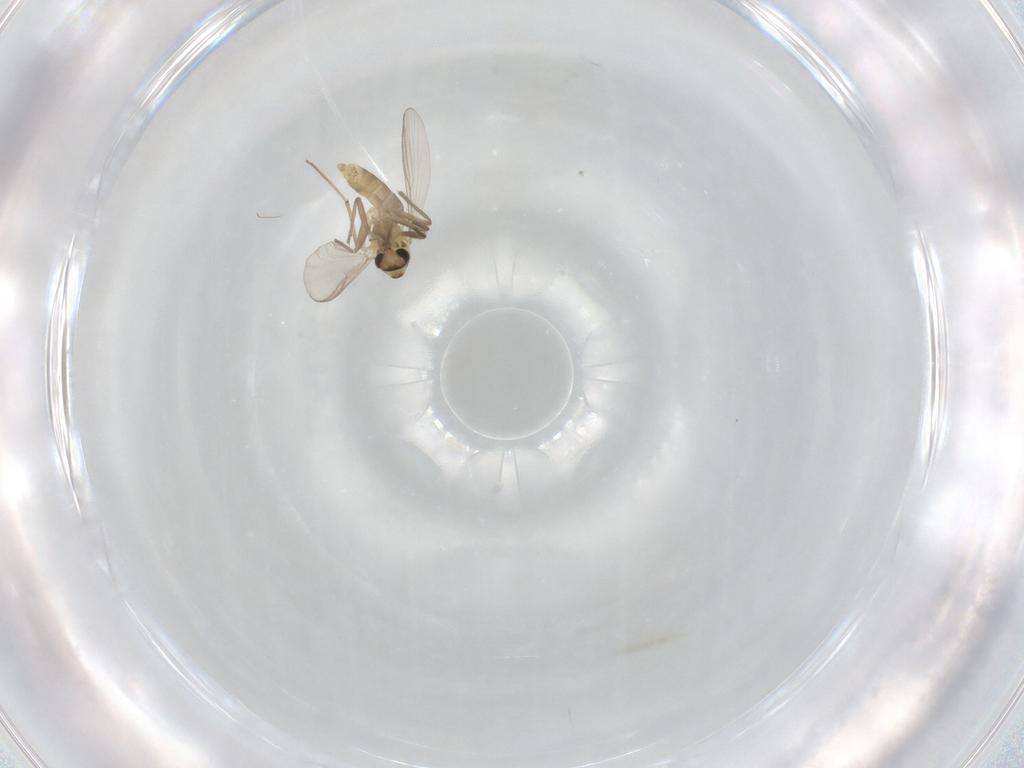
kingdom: Animalia
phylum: Arthropoda
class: Insecta
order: Diptera
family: Chironomidae
